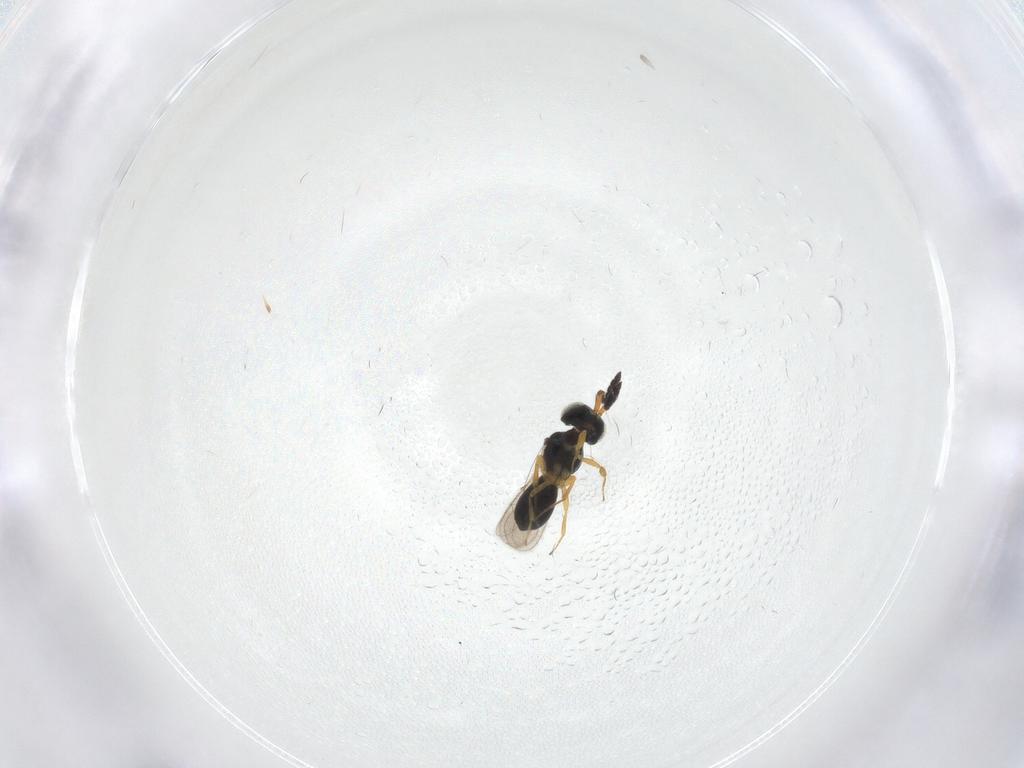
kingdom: Animalia
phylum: Arthropoda
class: Insecta
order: Hymenoptera
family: Scelionidae
